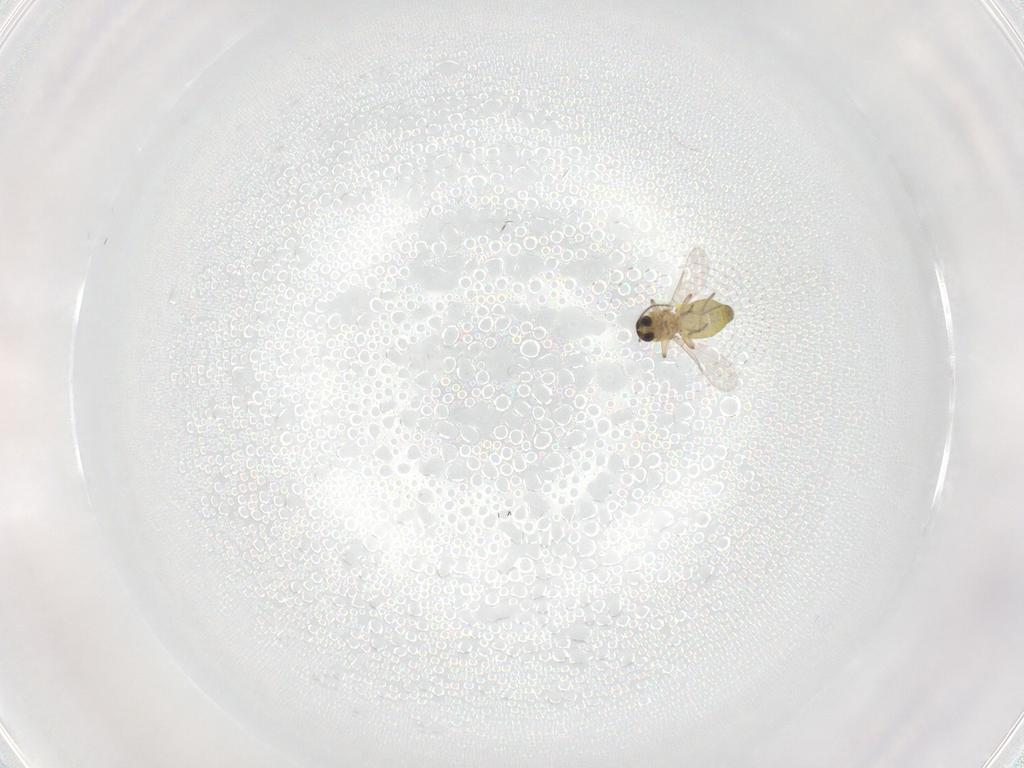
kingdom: Animalia
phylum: Arthropoda
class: Insecta
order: Diptera
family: Ceratopogonidae
